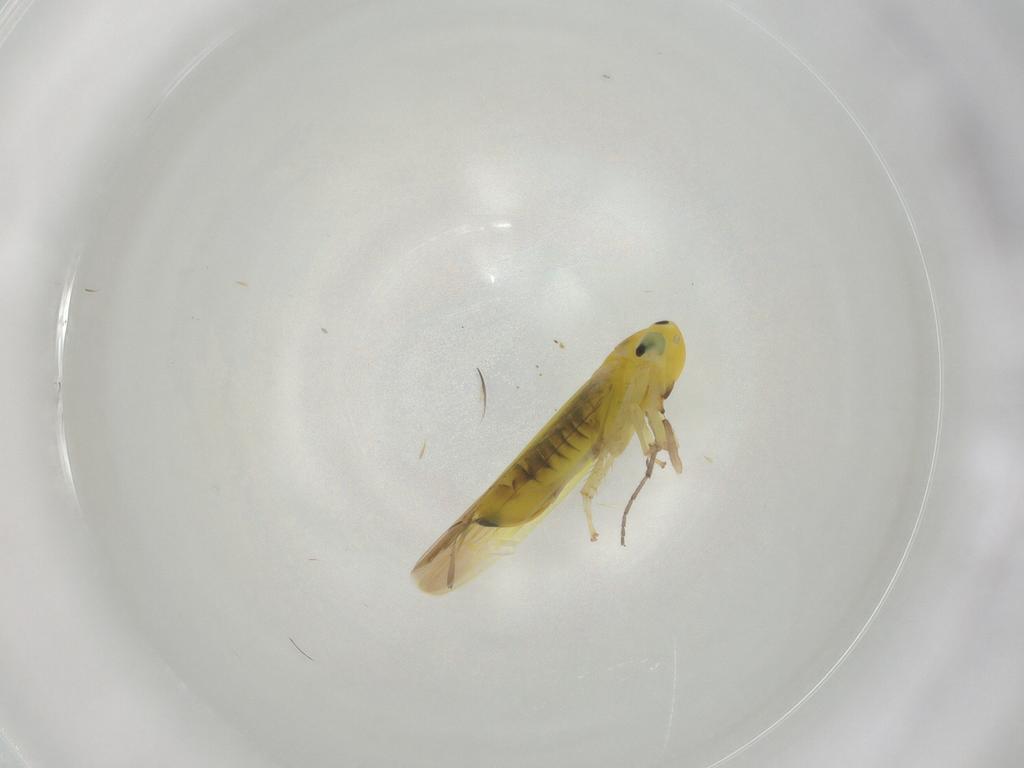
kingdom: Animalia
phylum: Arthropoda
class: Insecta
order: Hemiptera
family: Cicadellidae
